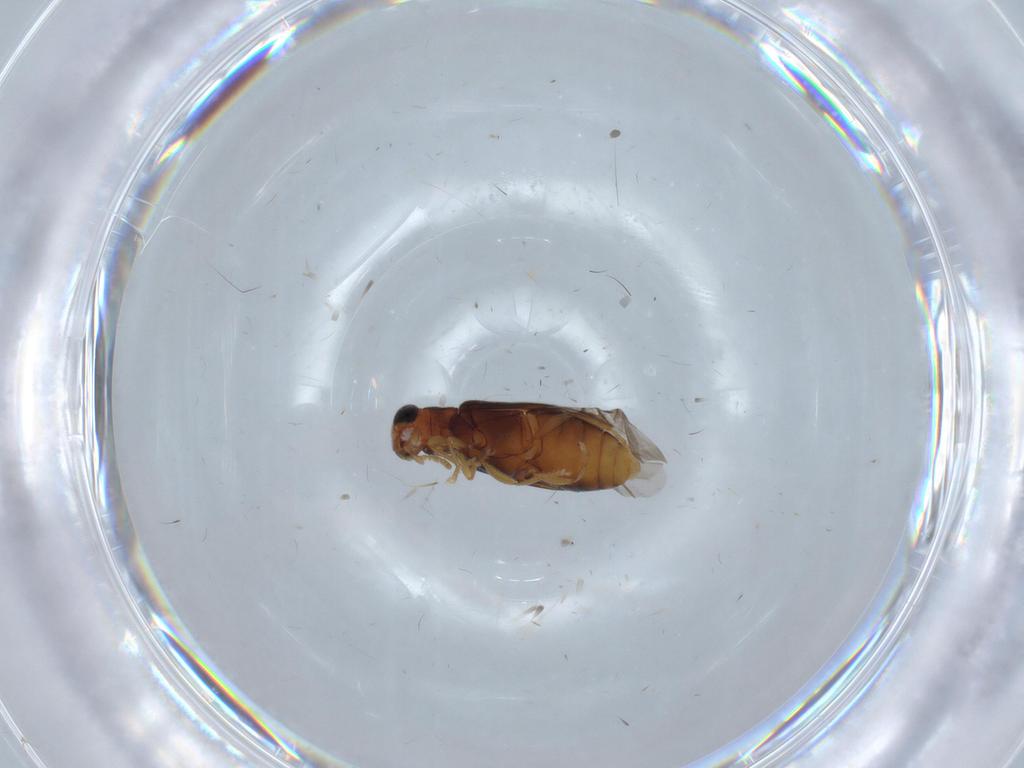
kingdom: Animalia
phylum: Arthropoda
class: Insecta
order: Coleoptera
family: Mycteridae
